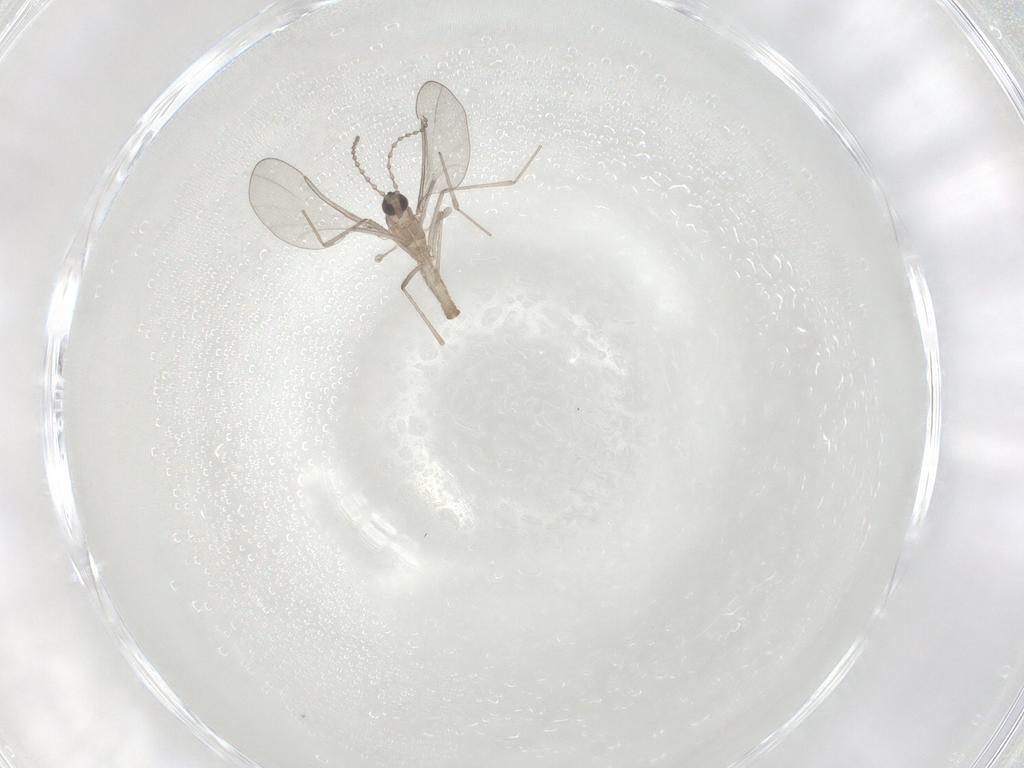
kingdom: Animalia
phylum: Arthropoda
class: Insecta
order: Diptera
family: Cecidomyiidae
